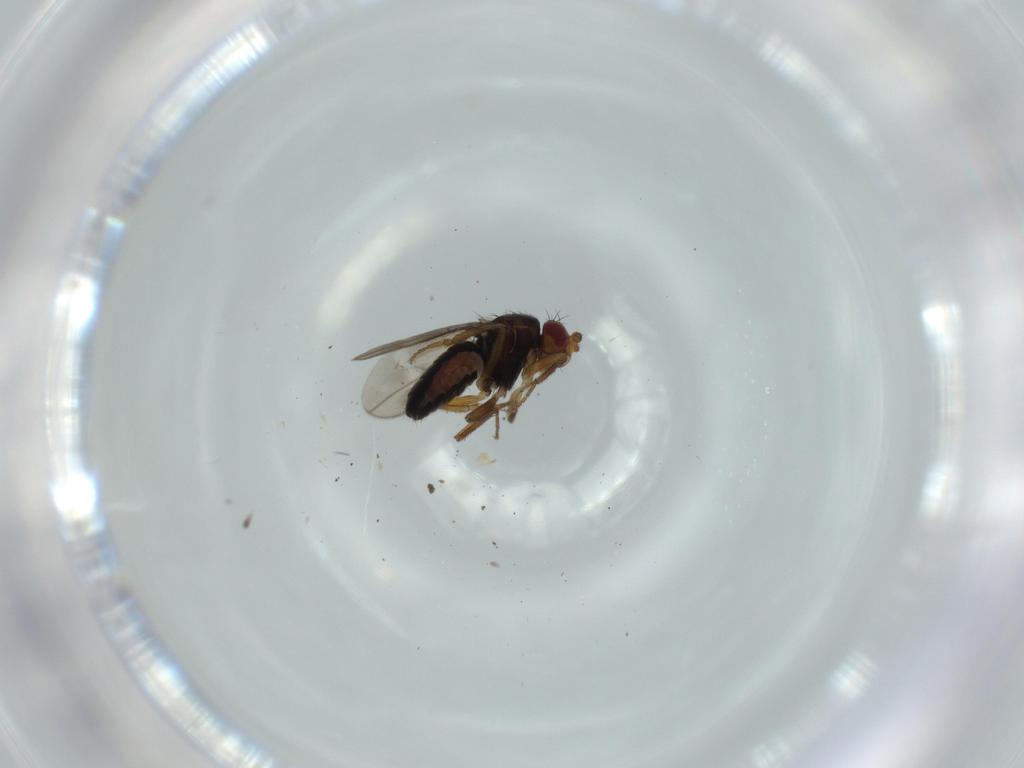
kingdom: Animalia
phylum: Arthropoda
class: Insecta
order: Diptera
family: Sphaeroceridae
